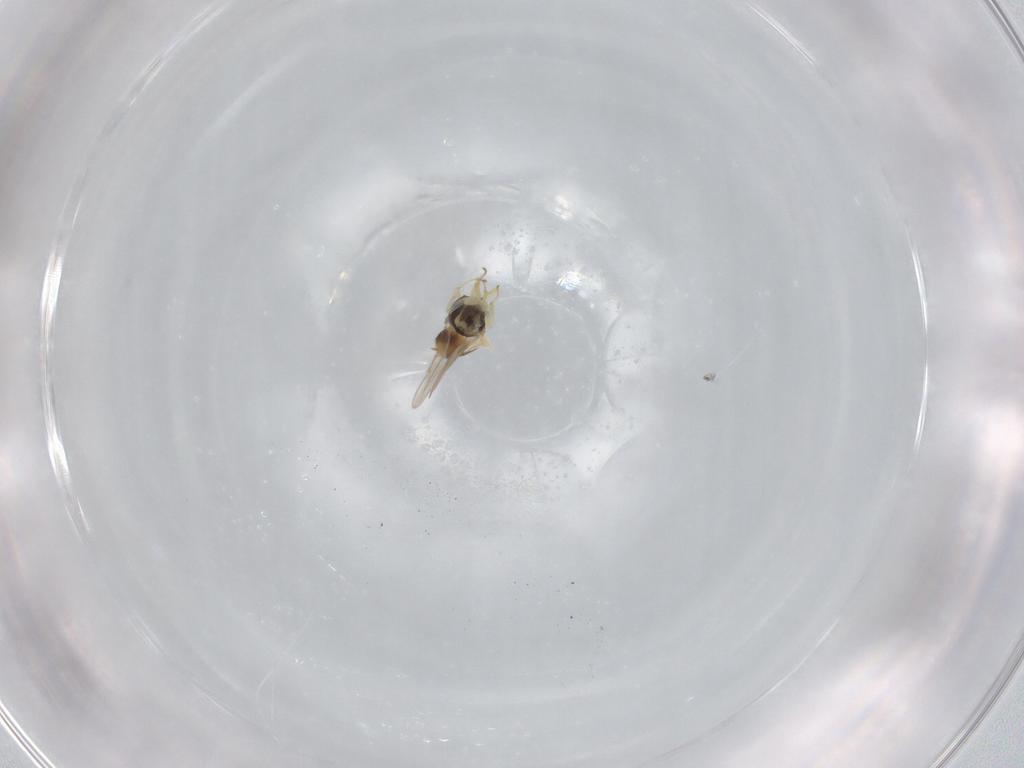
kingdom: Animalia
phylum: Arthropoda
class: Insecta
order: Hymenoptera
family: Aphelinidae
